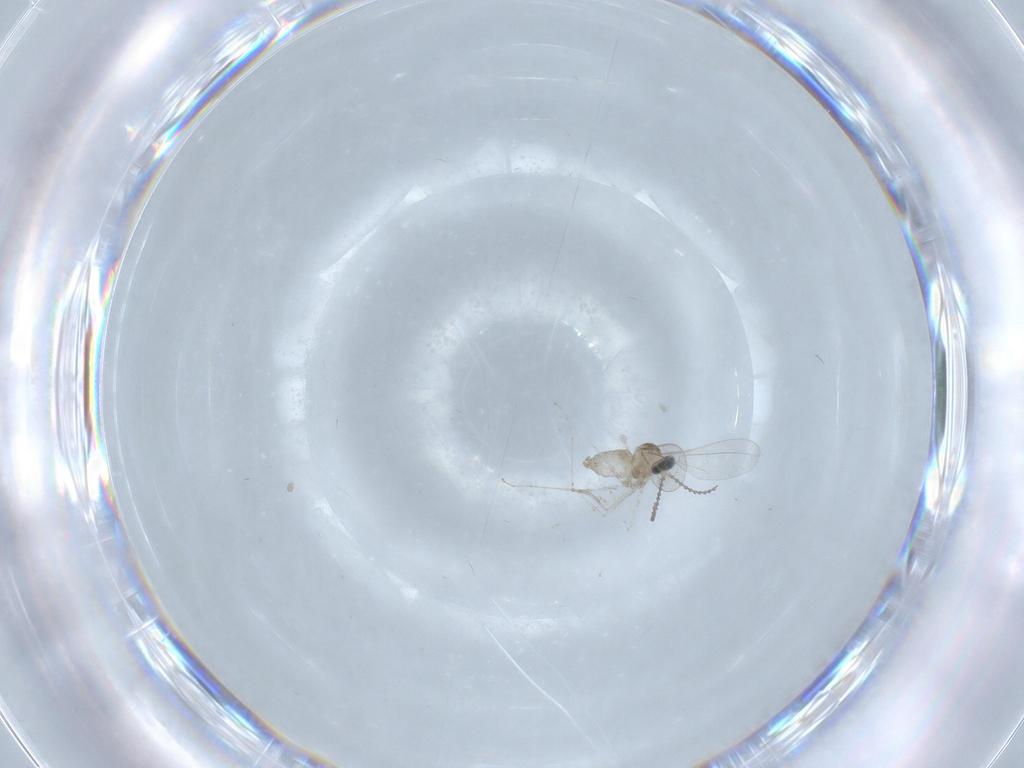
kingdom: Animalia
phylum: Arthropoda
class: Insecta
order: Diptera
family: Cecidomyiidae
